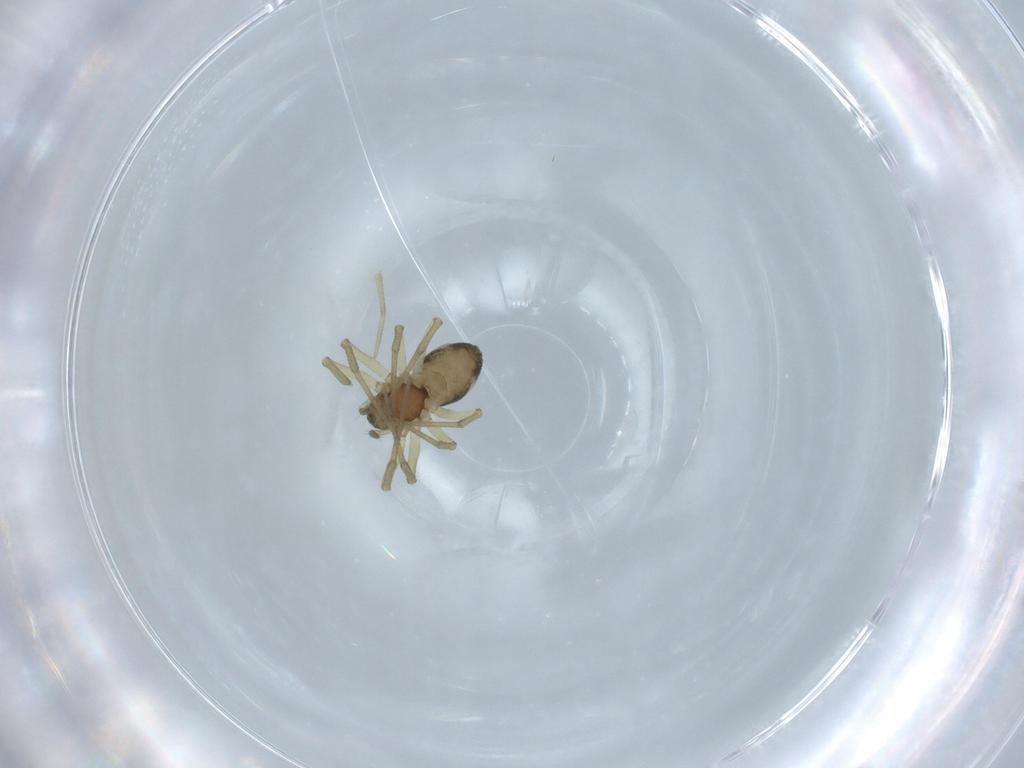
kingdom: Animalia
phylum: Arthropoda
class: Arachnida
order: Araneae
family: Linyphiidae
